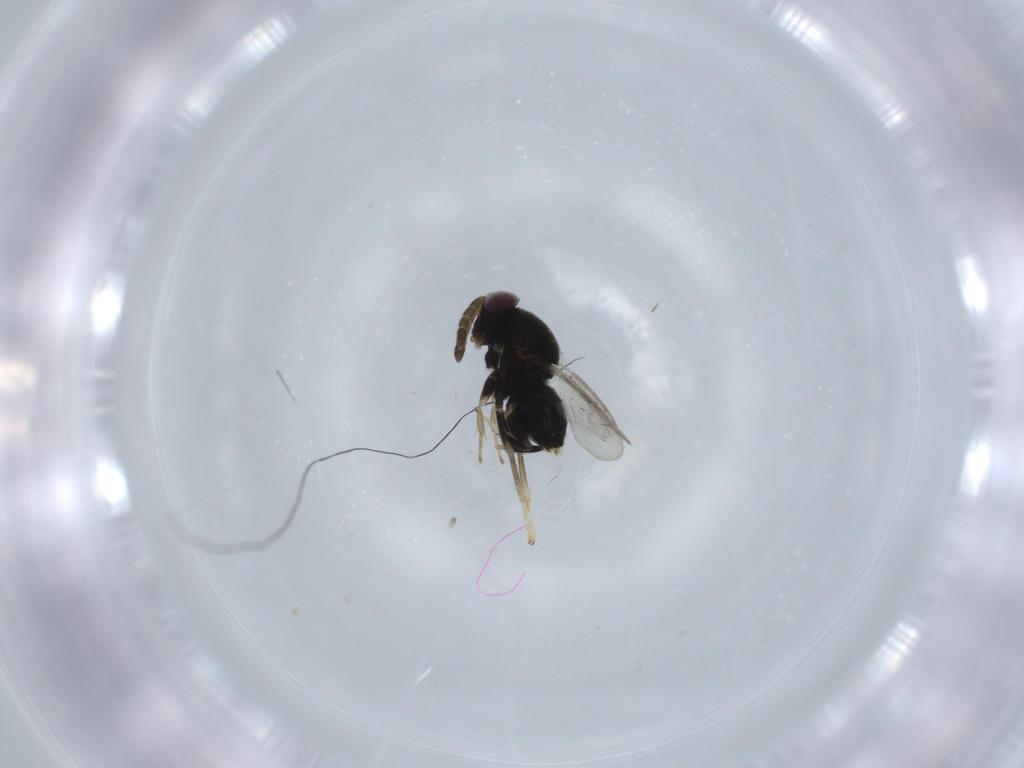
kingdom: Animalia
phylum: Arthropoda
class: Insecta
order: Hymenoptera
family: Aphelinidae
